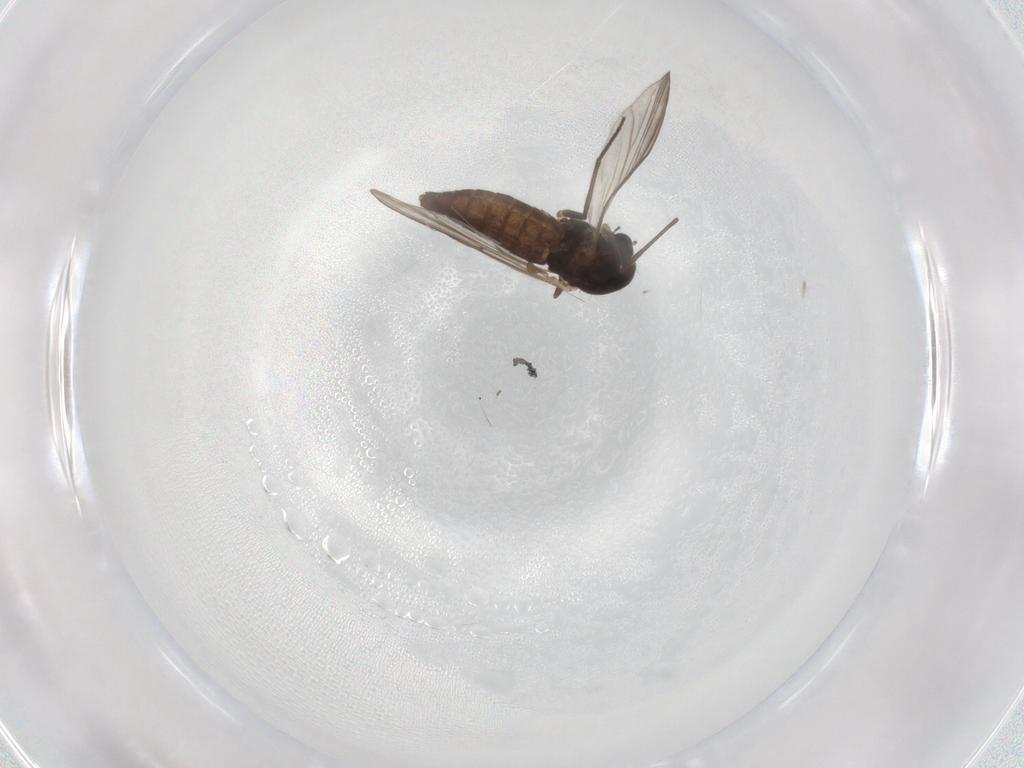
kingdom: Animalia
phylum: Arthropoda
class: Insecta
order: Diptera
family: Chironomidae
